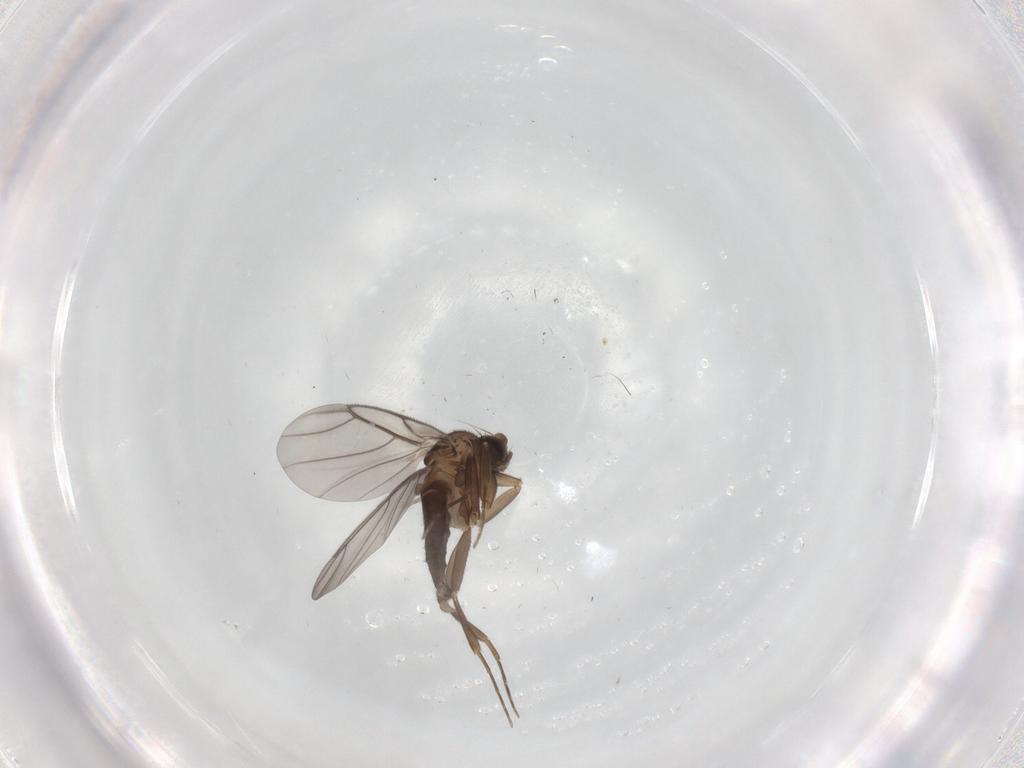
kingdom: Animalia
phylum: Arthropoda
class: Insecta
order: Diptera
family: Phoridae
